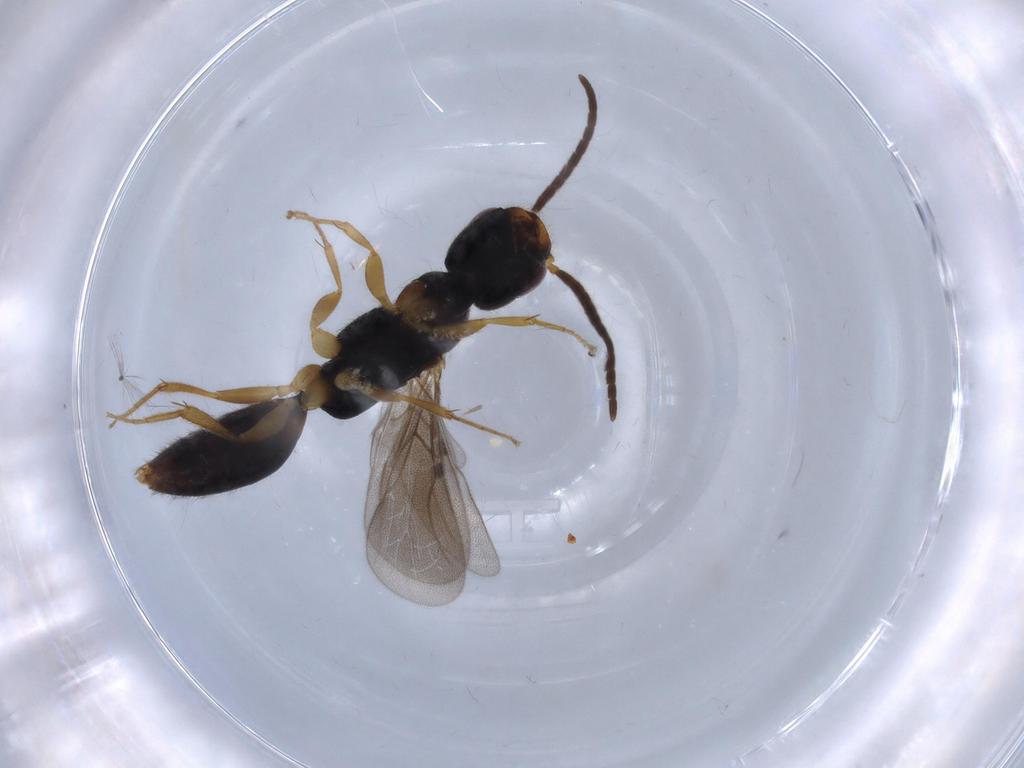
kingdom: Animalia
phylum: Arthropoda
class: Insecta
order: Hymenoptera
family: Bethylidae
